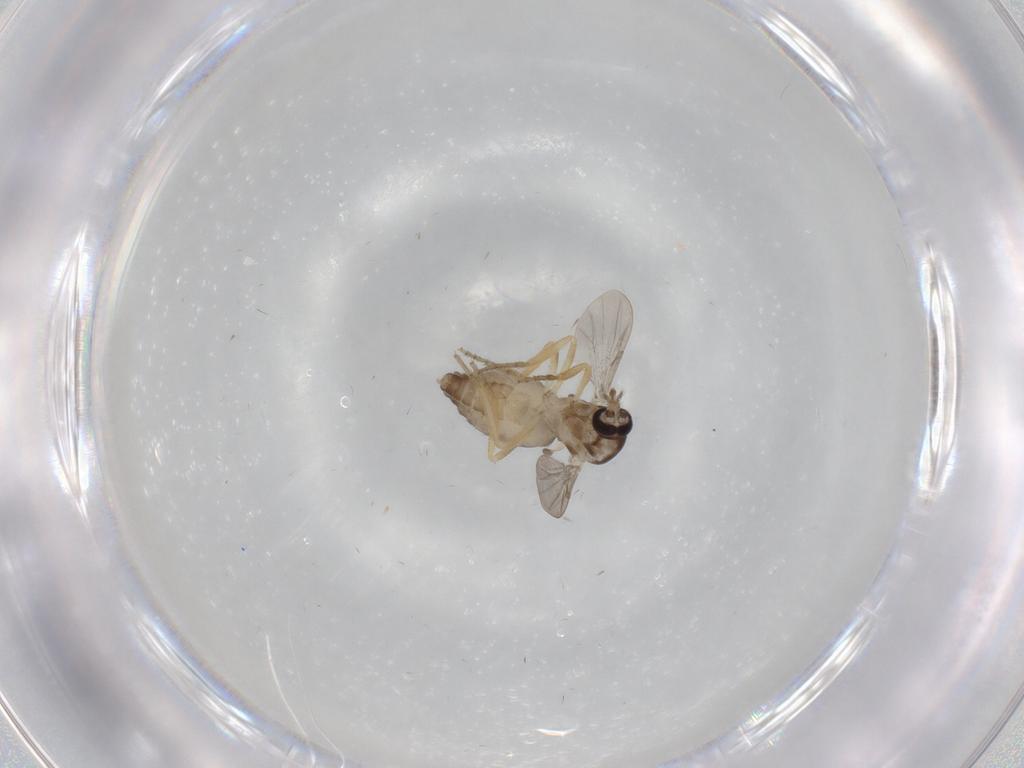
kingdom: Animalia
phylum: Arthropoda
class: Insecta
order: Diptera
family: Ceratopogonidae
